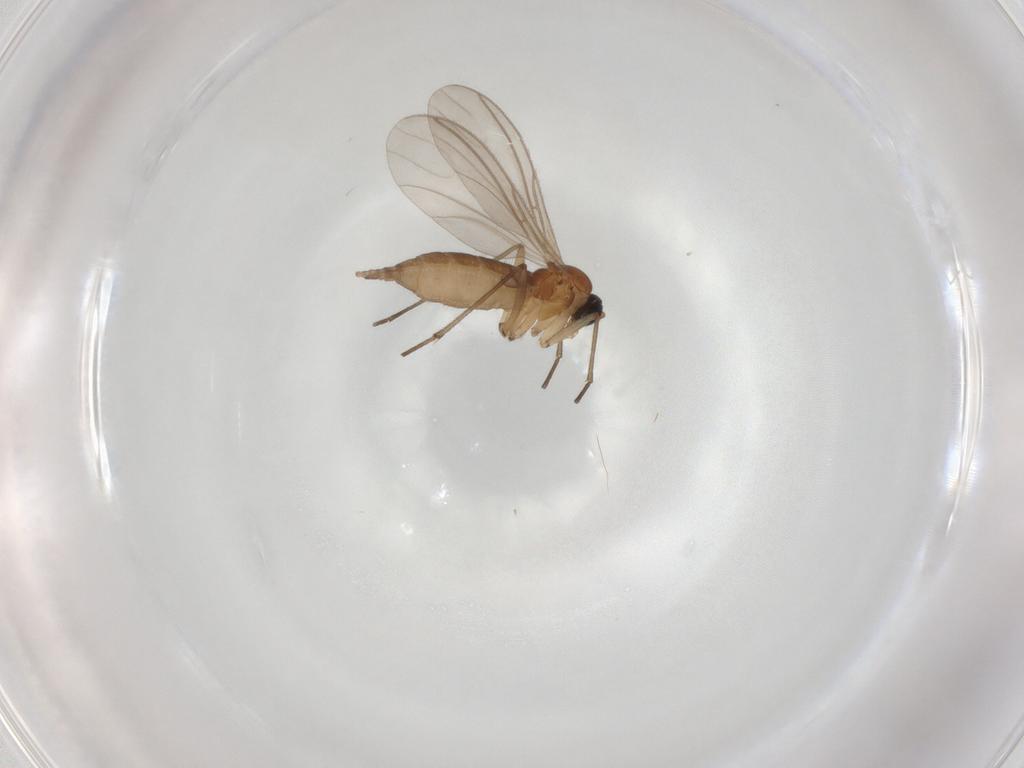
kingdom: Animalia
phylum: Arthropoda
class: Insecta
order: Diptera
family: Sciaridae
